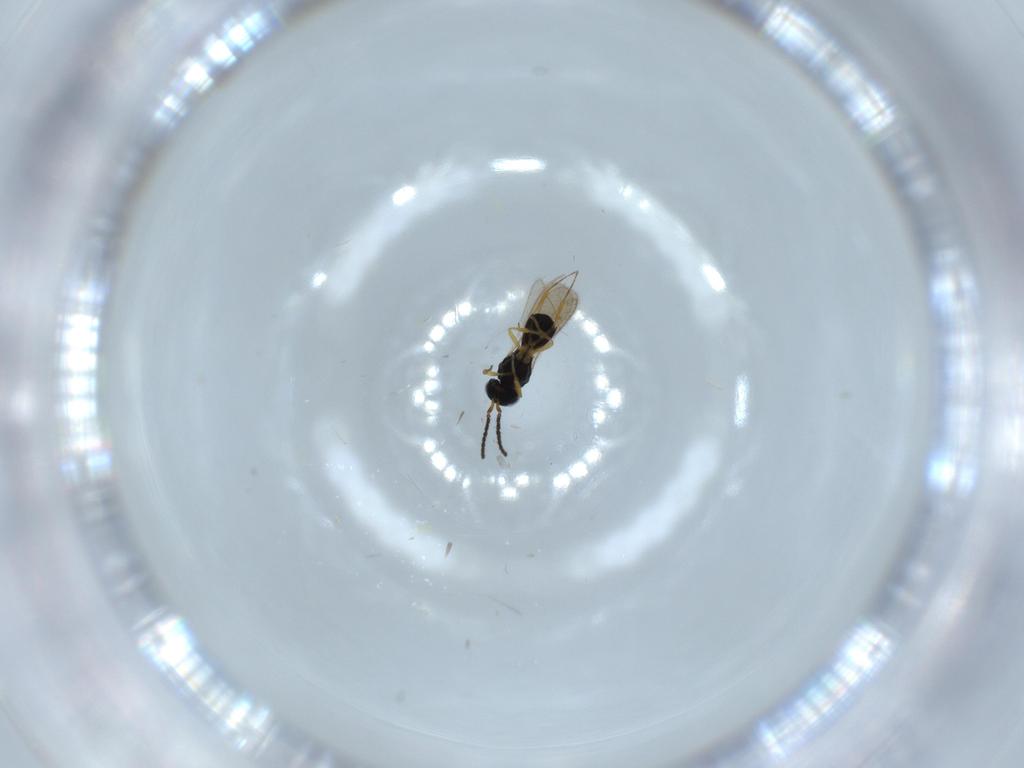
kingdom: Animalia
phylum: Arthropoda
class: Insecta
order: Hymenoptera
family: Scelionidae
